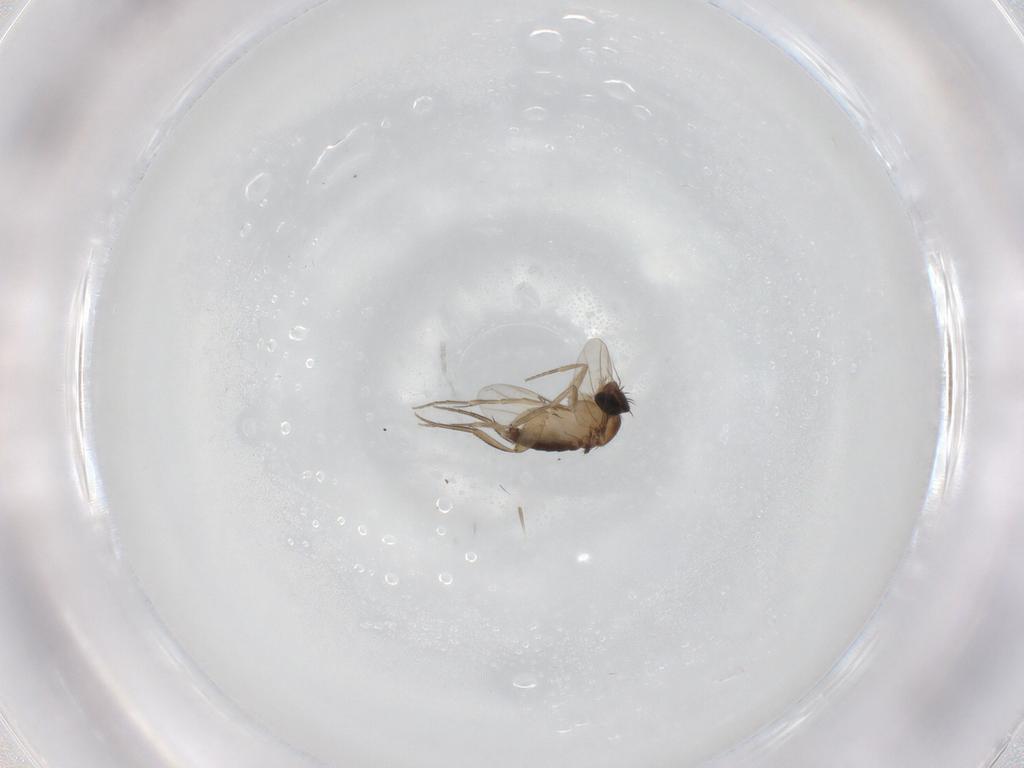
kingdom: Animalia
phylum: Arthropoda
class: Insecta
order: Diptera
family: Phoridae
